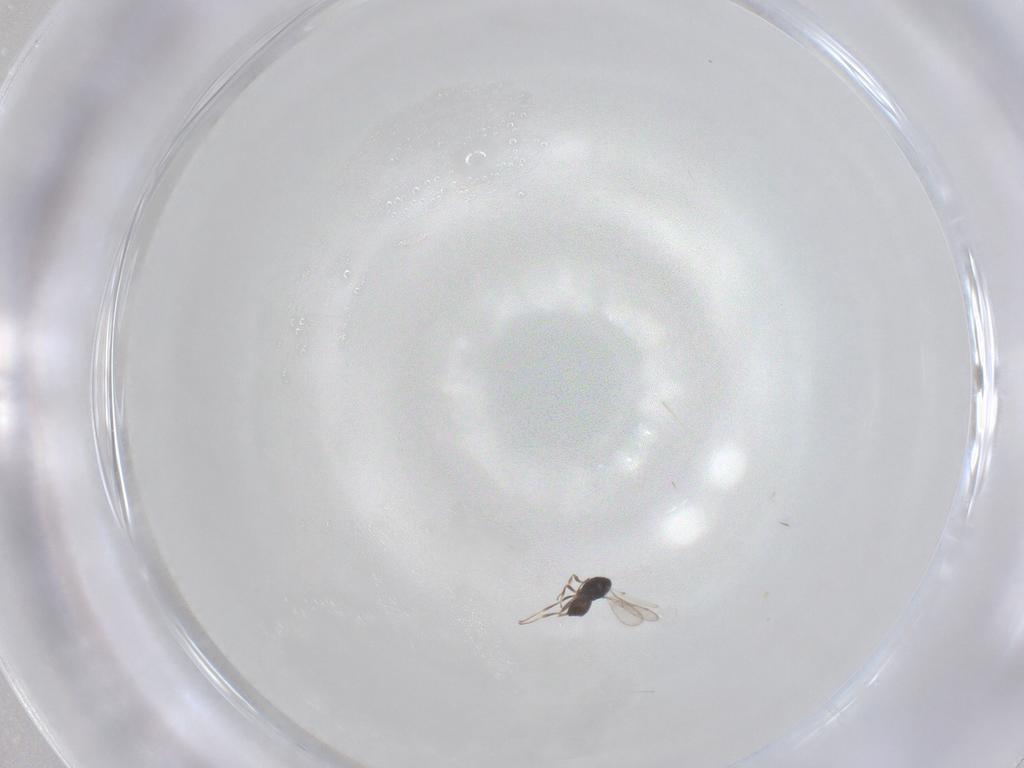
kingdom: Animalia
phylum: Arthropoda
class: Insecta
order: Hymenoptera
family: Scelionidae
